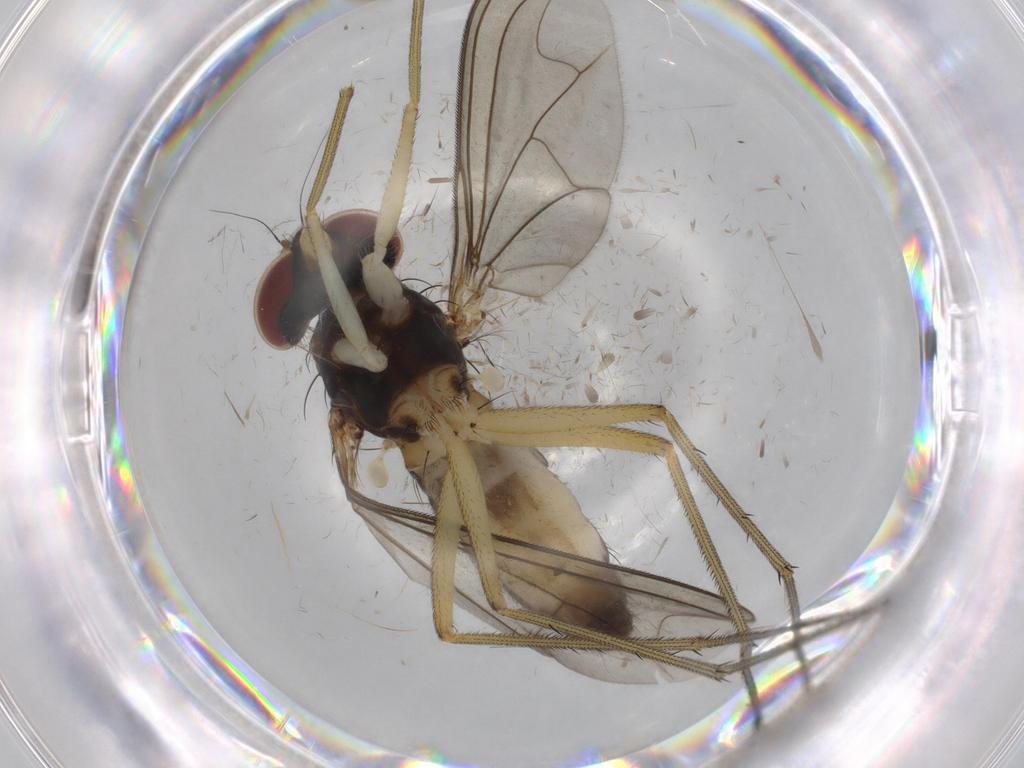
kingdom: Animalia
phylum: Arthropoda
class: Insecta
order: Diptera
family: Dolichopodidae
